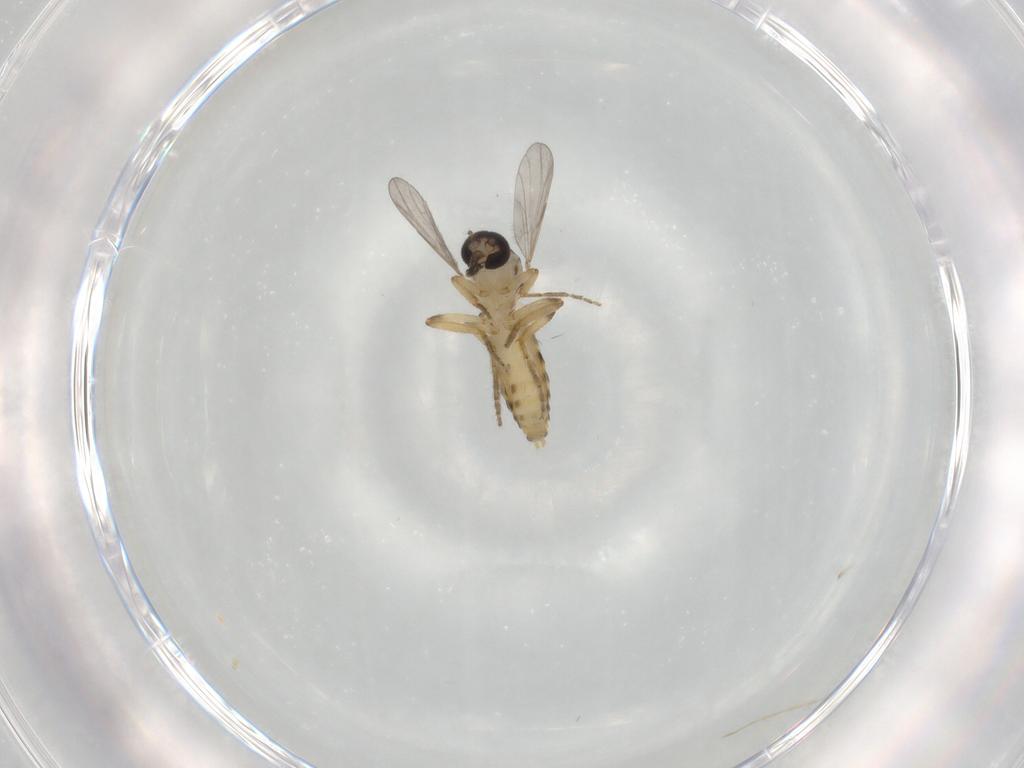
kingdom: Animalia
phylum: Arthropoda
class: Insecta
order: Diptera
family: Ceratopogonidae
